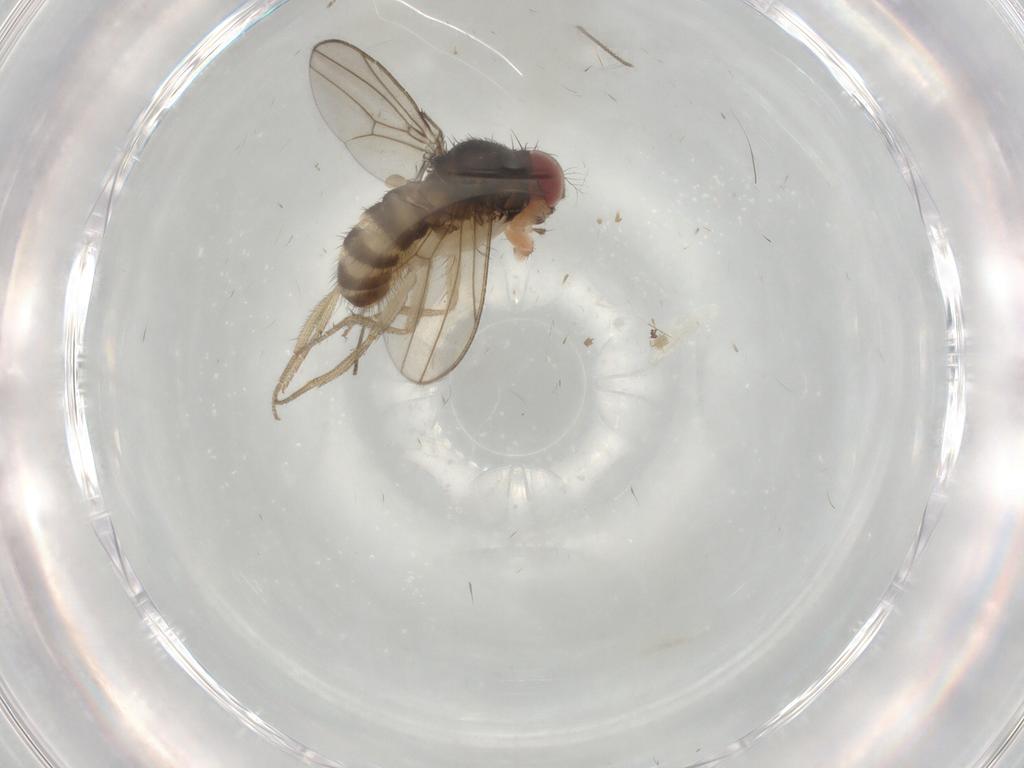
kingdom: Animalia
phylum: Arthropoda
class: Insecta
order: Diptera
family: Drosophilidae
